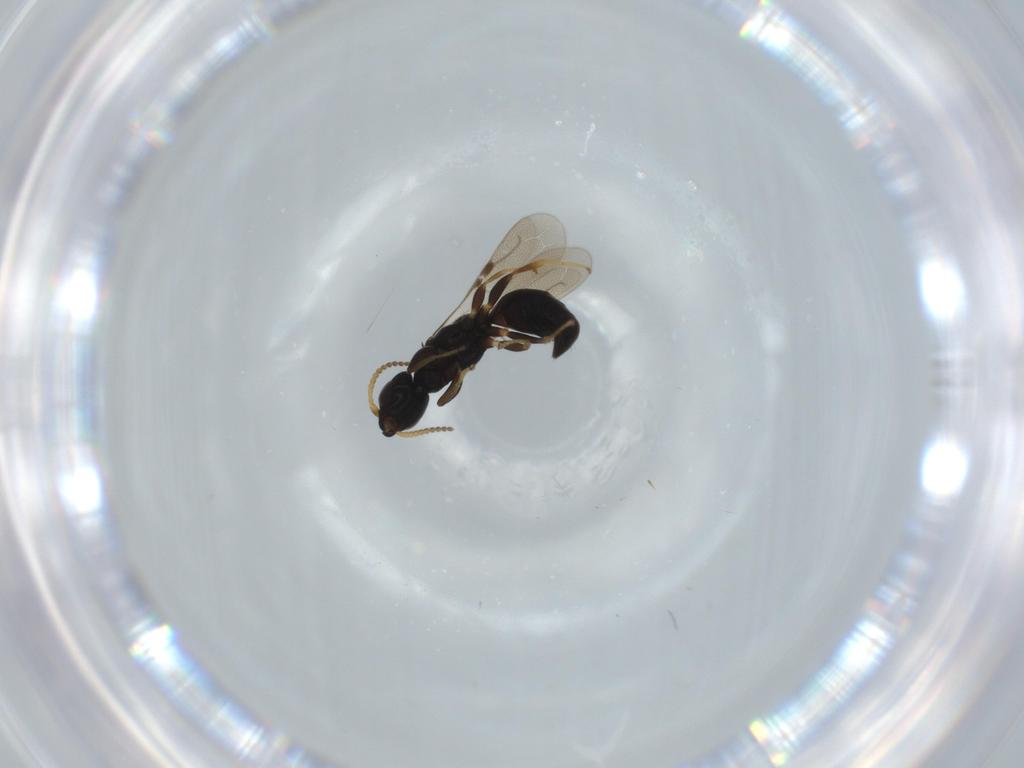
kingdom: Animalia
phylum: Arthropoda
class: Insecta
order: Hymenoptera
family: Bethylidae
